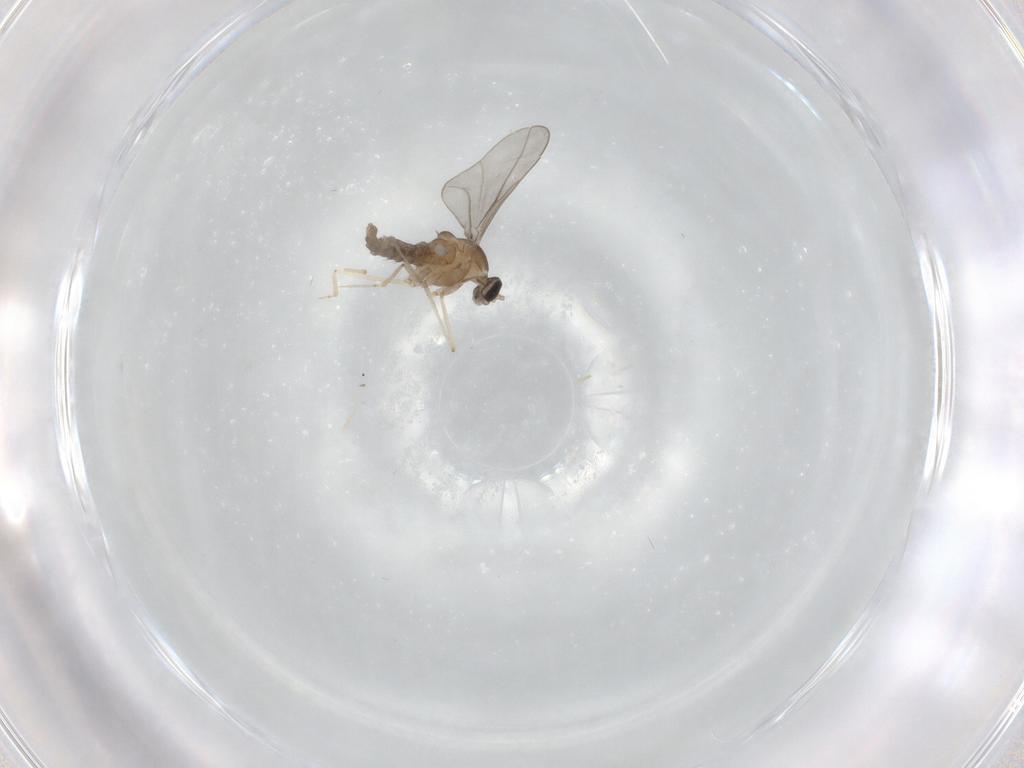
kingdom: Animalia
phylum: Arthropoda
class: Insecta
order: Diptera
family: Cecidomyiidae
